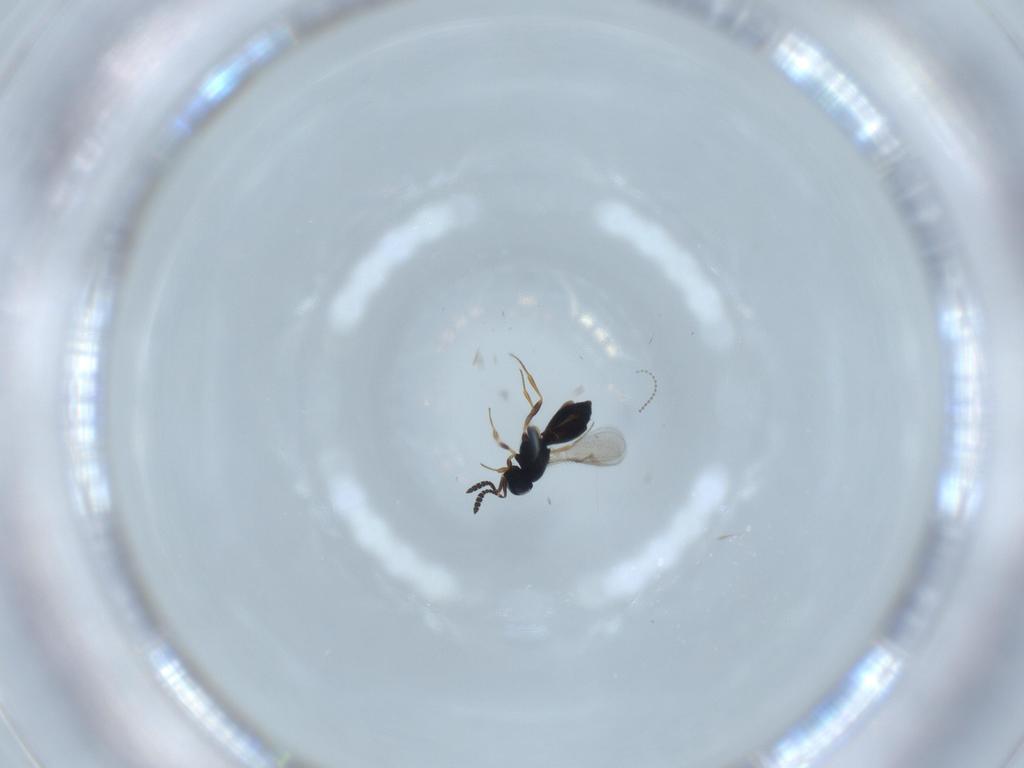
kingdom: Animalia
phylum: Arthropoda
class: Insecta
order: Hymenoptera
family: Scelionidae
